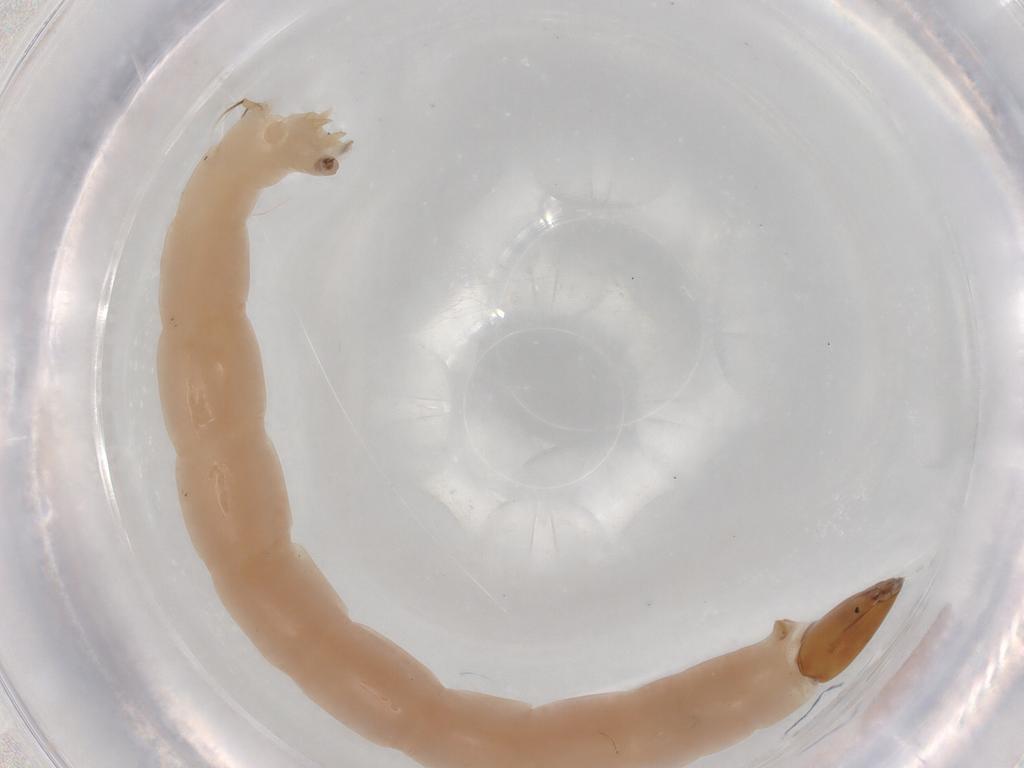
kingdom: Animalia
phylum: Arthropoda
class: Insecta
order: Diptera
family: Chironomidae
